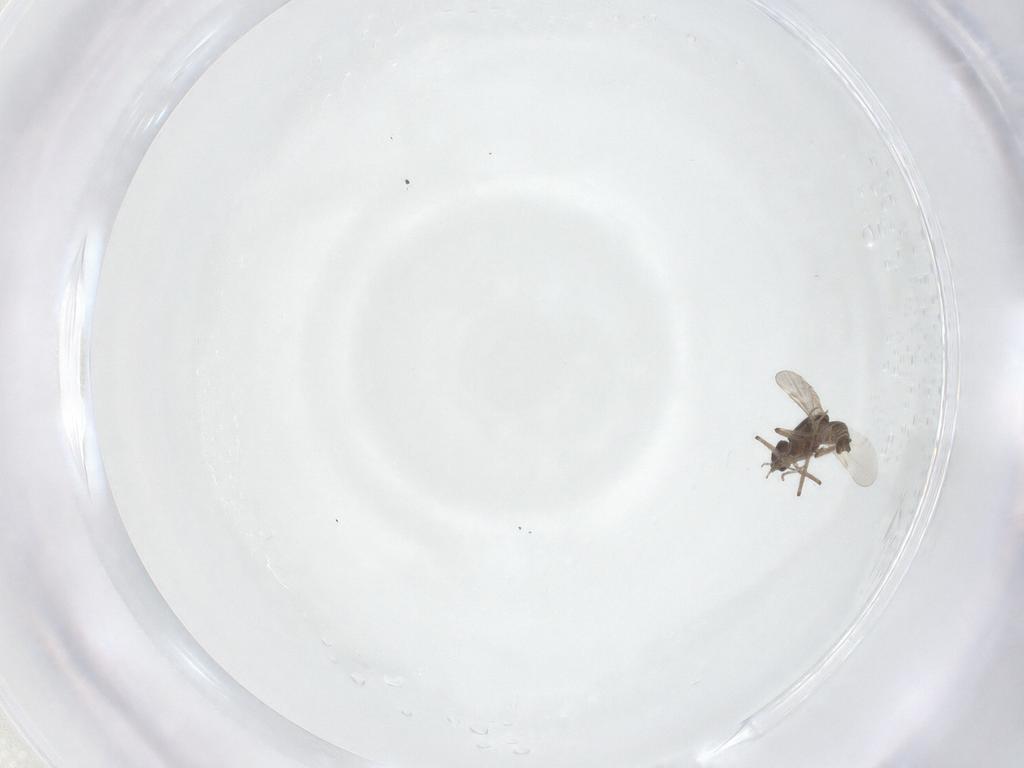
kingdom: Animalia
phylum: Arthropoda
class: Insecta
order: Diptera
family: Ceratopogonidae
